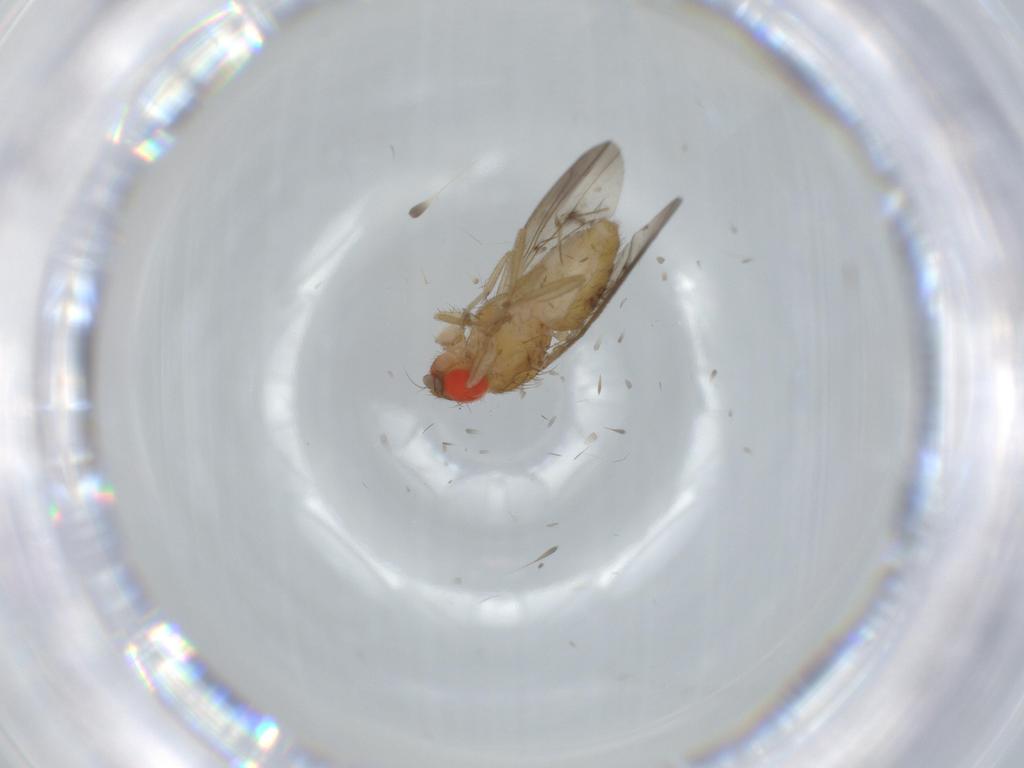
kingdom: Animalia
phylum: Arthropoda
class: Insecta
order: Diptera
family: Drosophilidae
